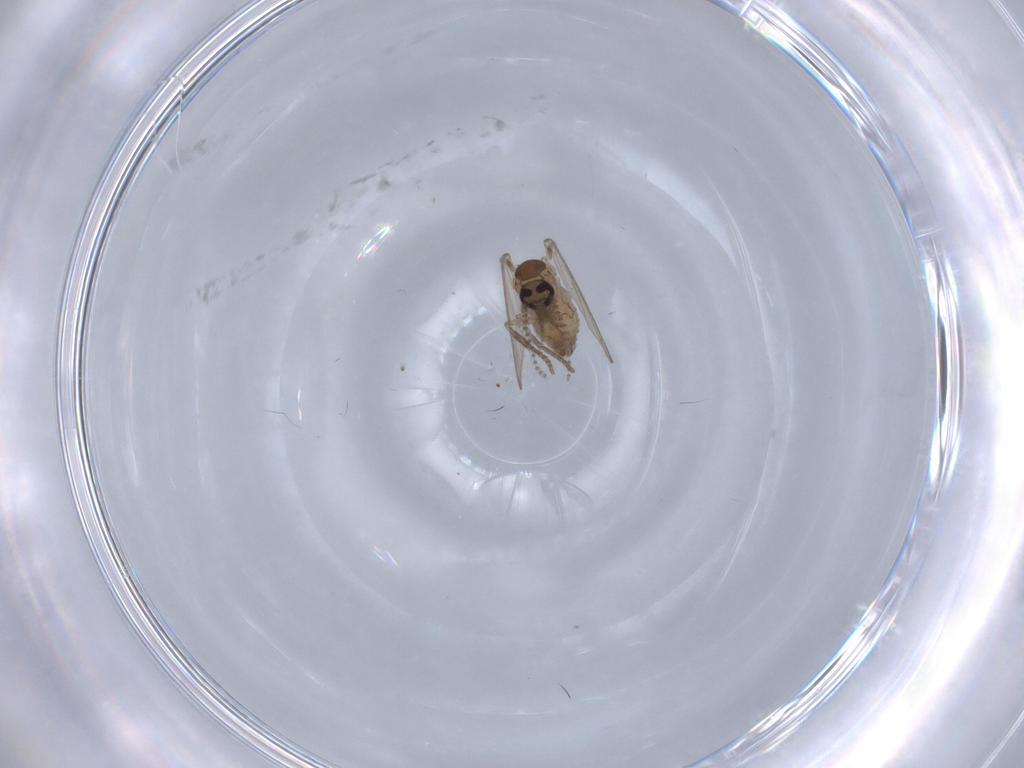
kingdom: Animalia
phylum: Arthropoda
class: Insecta
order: Diptera
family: Psychodidae
